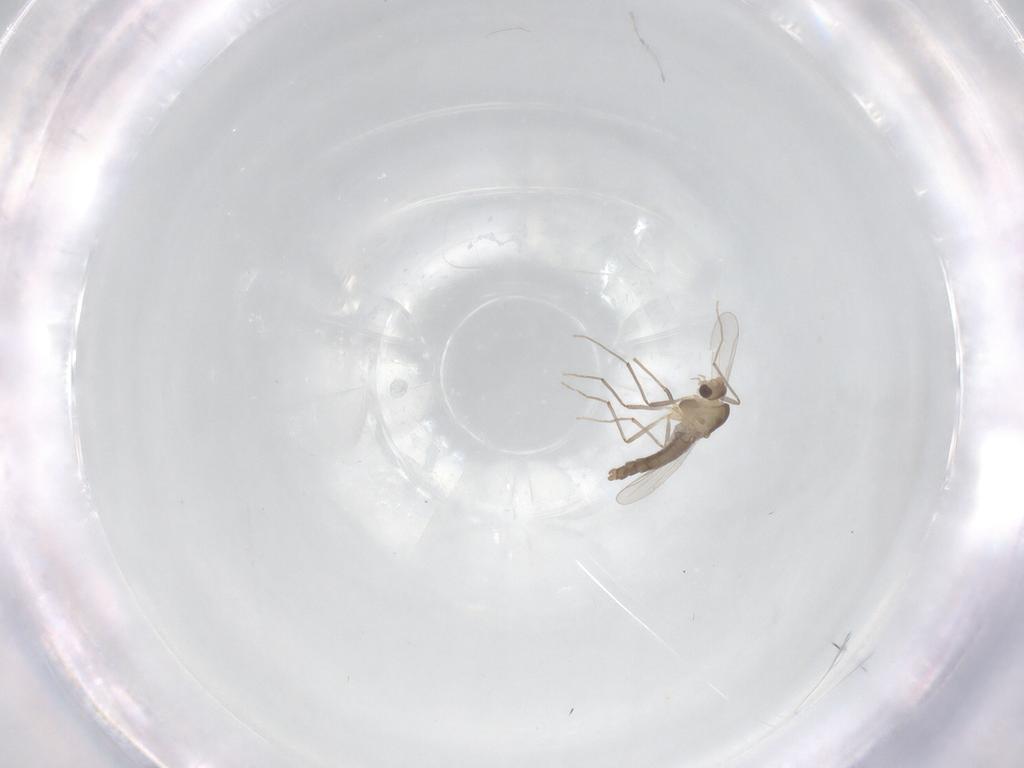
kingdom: Animalia
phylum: Arthropoda
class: Insecta
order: Diptera
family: Chironomidae
